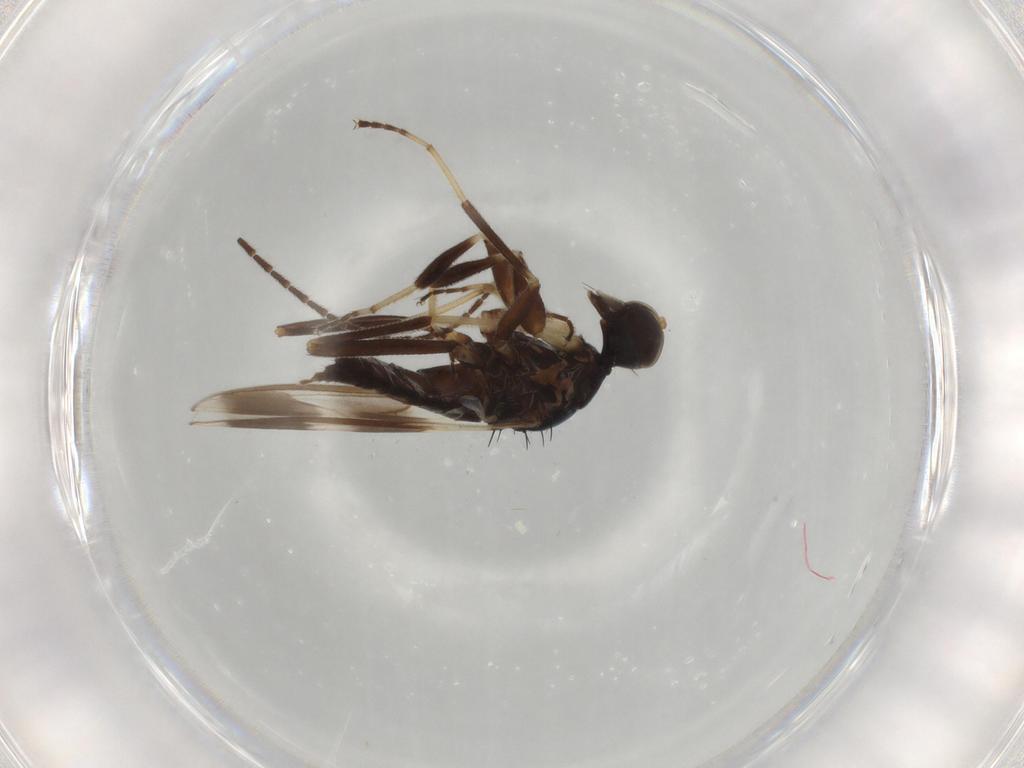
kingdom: Animalia
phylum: Arthropoda
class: Insecta
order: Diptera
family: Hybotidae
